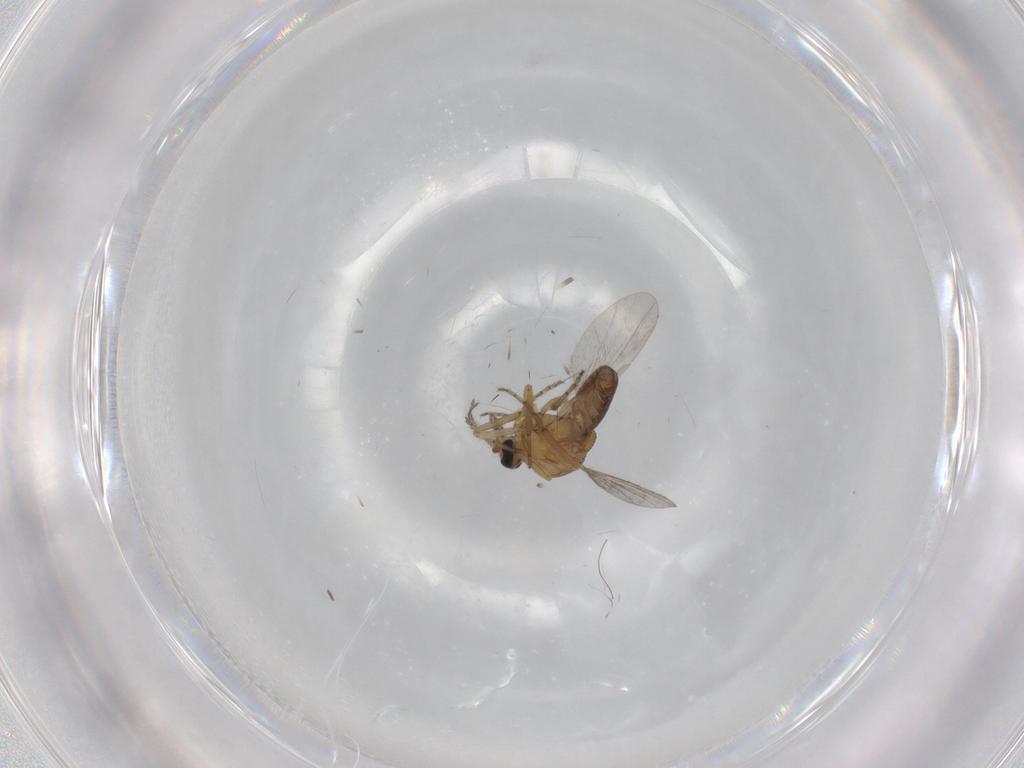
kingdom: Animalia
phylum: Arthropoda
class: Insecta
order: Diptera
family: Ceratopogonidae
